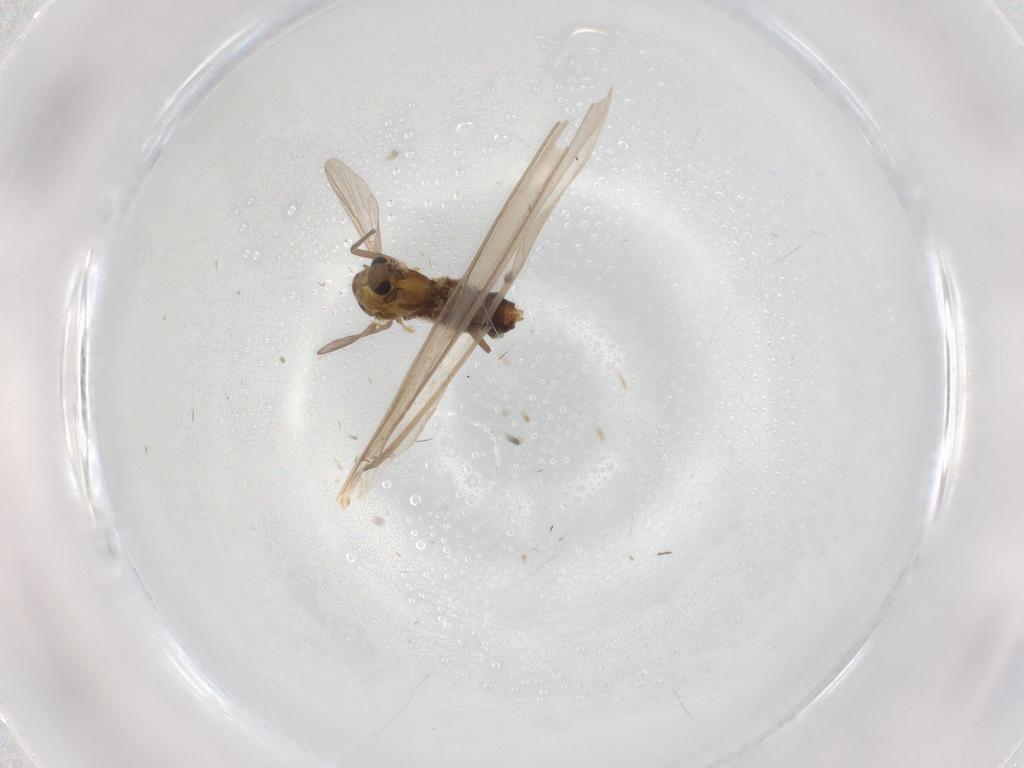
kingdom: Animalia
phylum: Arthropoda
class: Insecta
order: Diptera
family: Chironomidae
